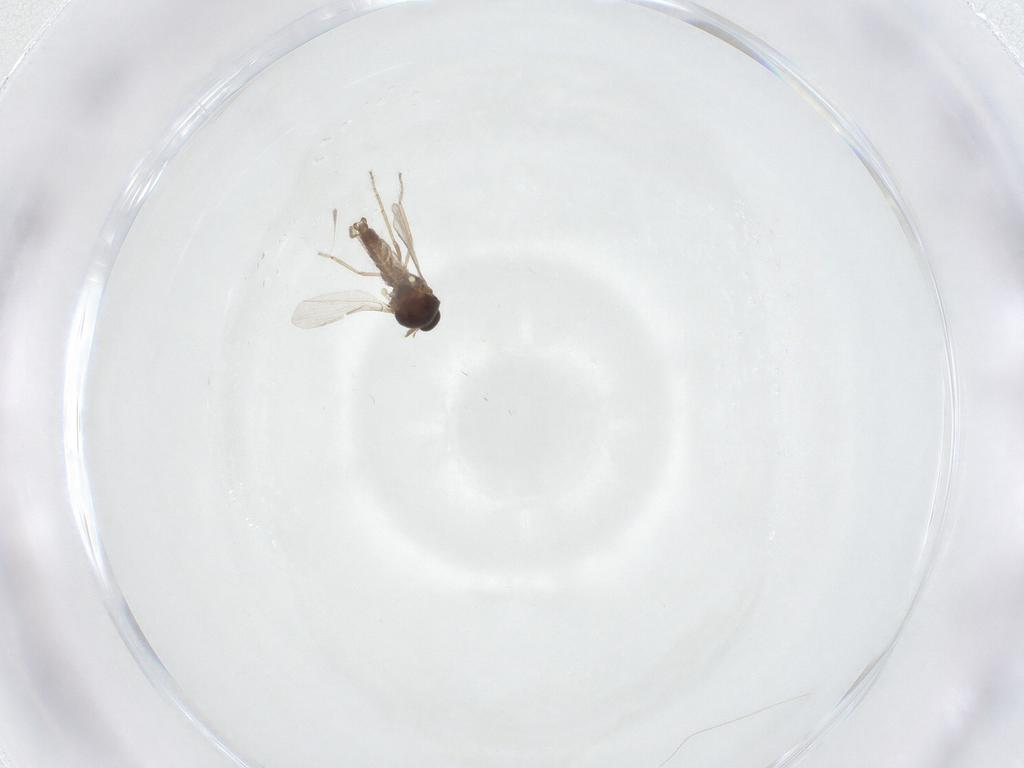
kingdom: Animalia
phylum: Arthropoda
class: Insecta
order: Diptera
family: Ceratopogonidae
